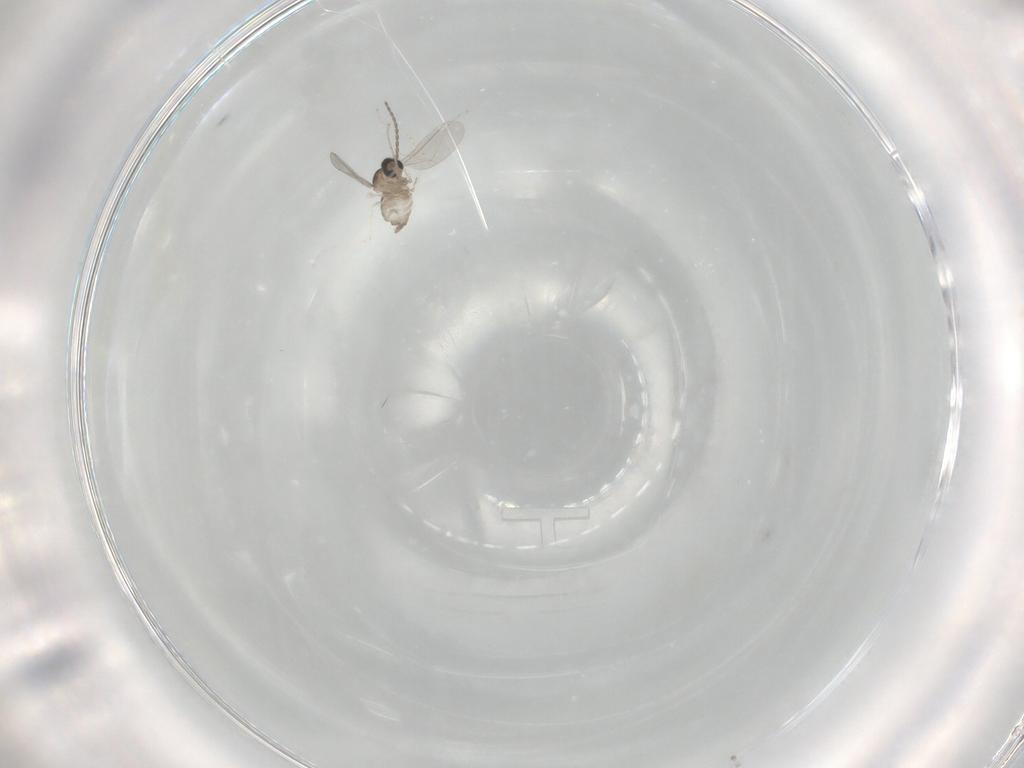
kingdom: Animalia
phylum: Arthropoda
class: Insecta
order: Diptera
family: Cecidomyiidae
